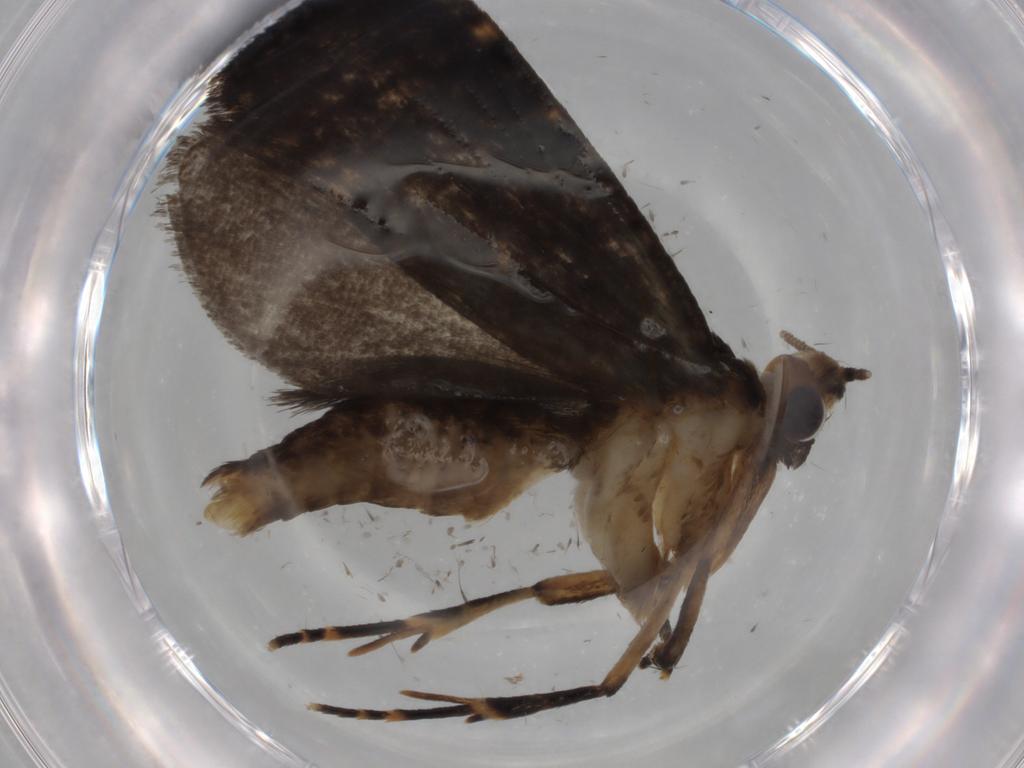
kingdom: Animalia
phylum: Arthropoda
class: Insecta
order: Lepidoptera
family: Tineidae
